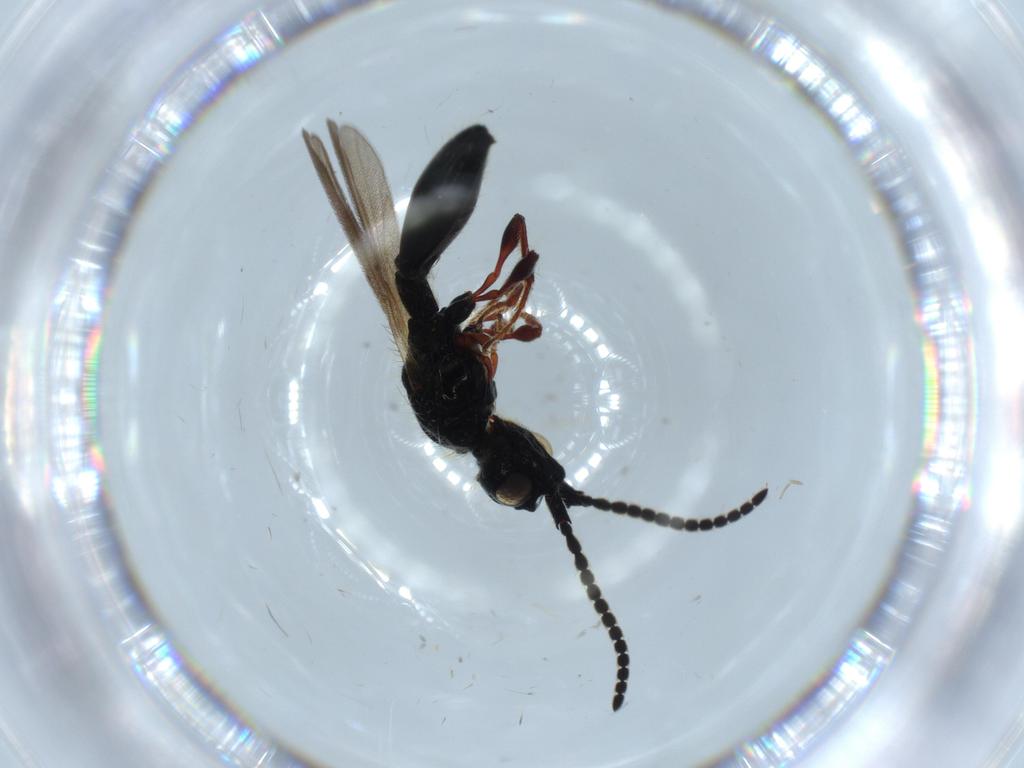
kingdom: Animalia
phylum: Arthropoda
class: Insecta
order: Hymenoptera
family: Diapriidae
